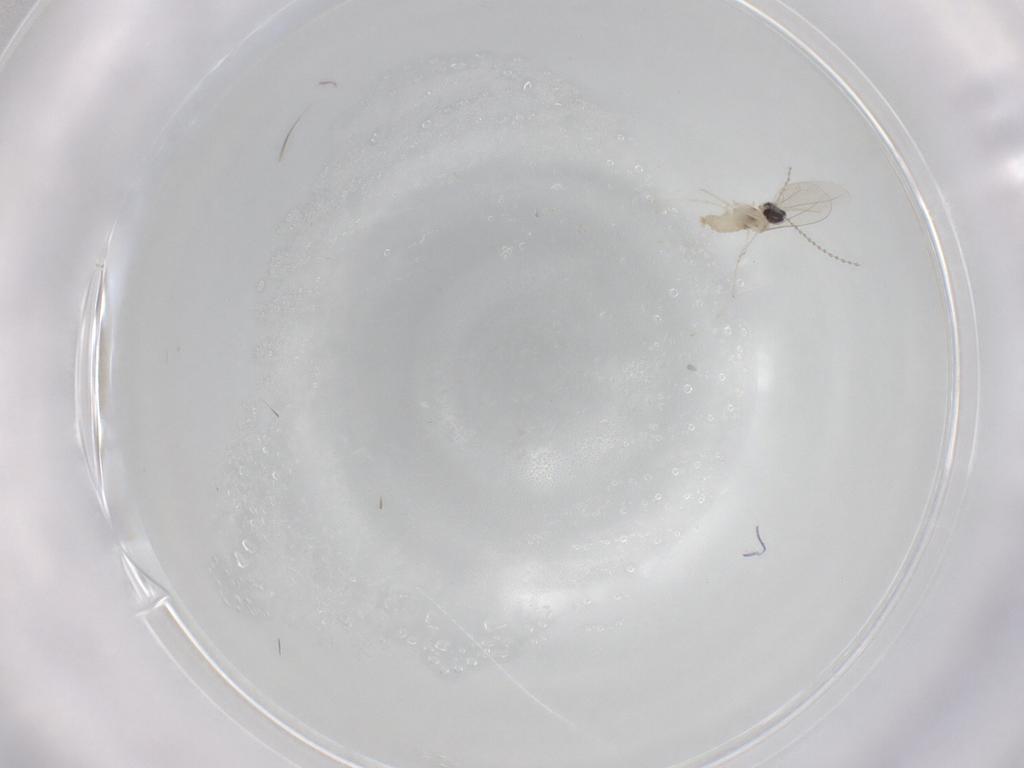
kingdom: Animalia
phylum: Arthropoda
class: Insecta
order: Diptera
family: Cecidomyiidae
